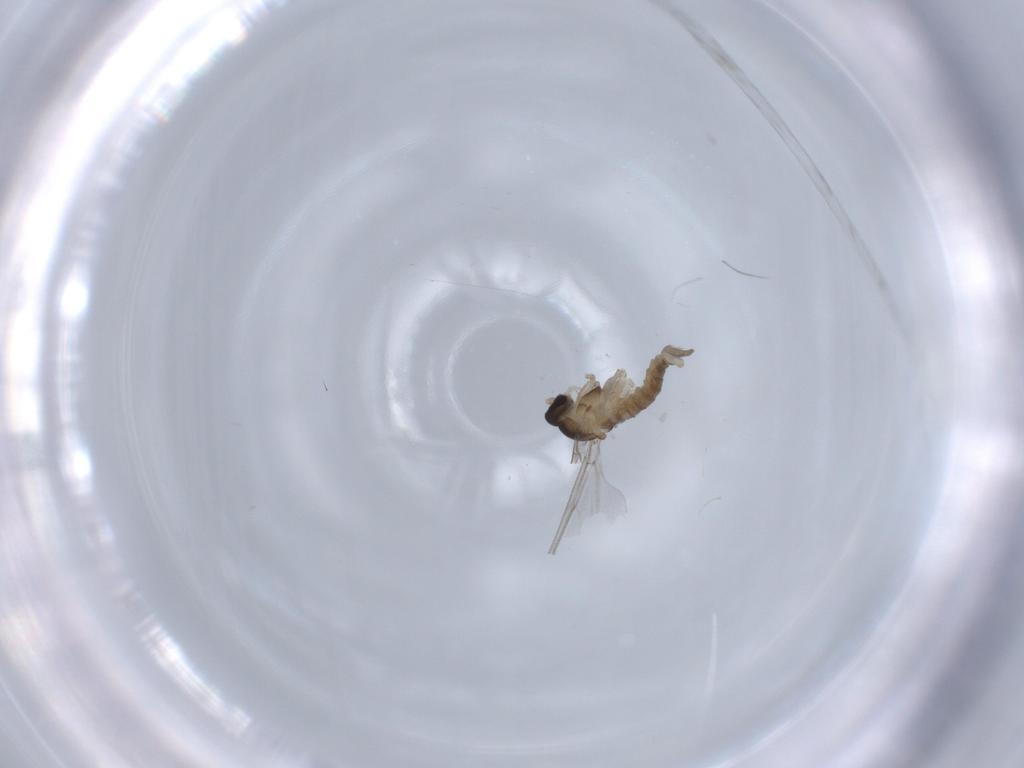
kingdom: Animalia
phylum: Arthropoda
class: Insecta
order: Diptera
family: Cecidomyiidae
